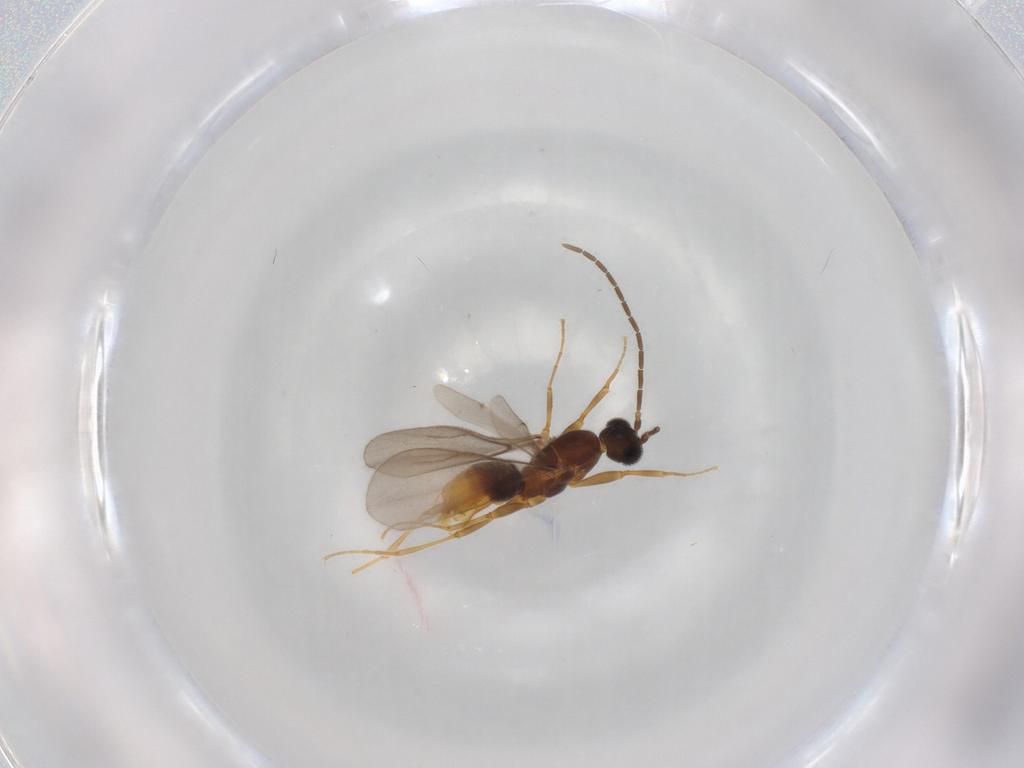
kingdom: Animalia
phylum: Arthropoda
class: Insecta
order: Hymenoptera
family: Formicidae
